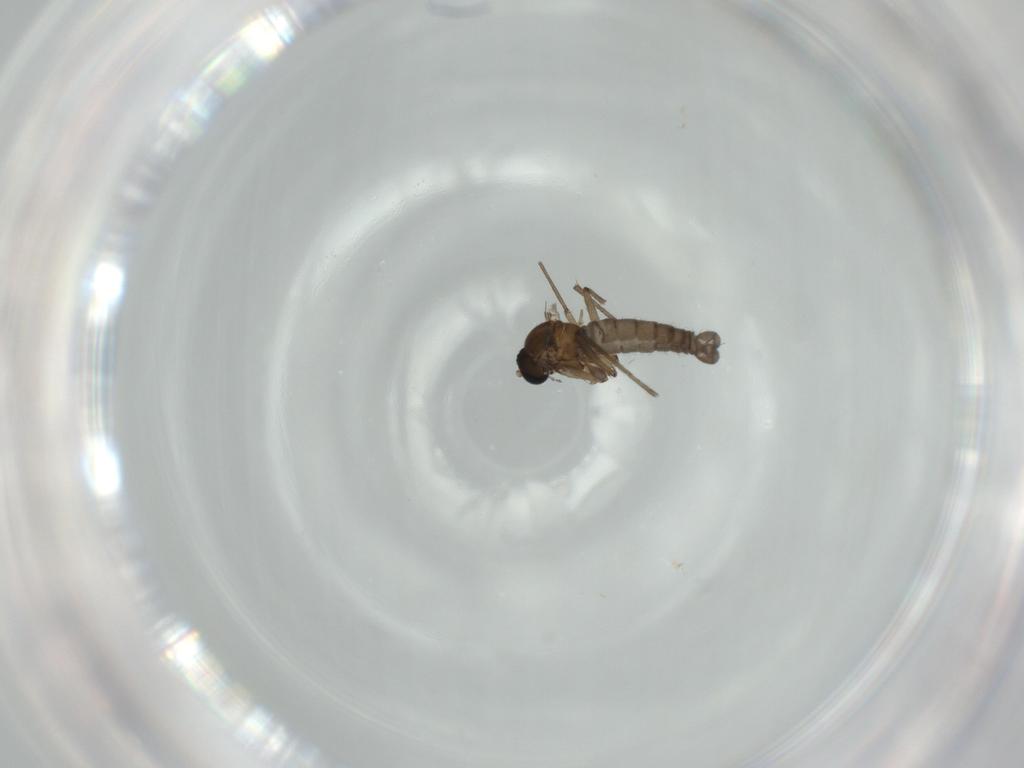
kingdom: Animalia
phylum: Arthropoda
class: Insecta
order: Diptera
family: Sciaridae
